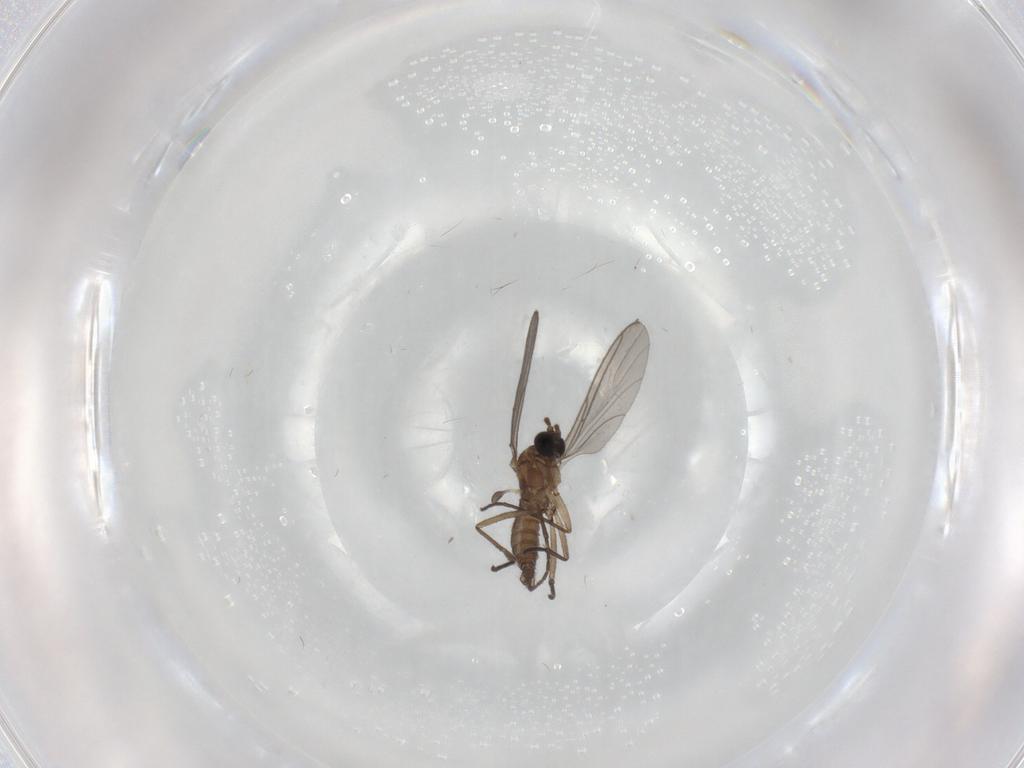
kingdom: Animalia
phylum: Arthropoda
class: Insecta
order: Diptera
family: Sciaridae
